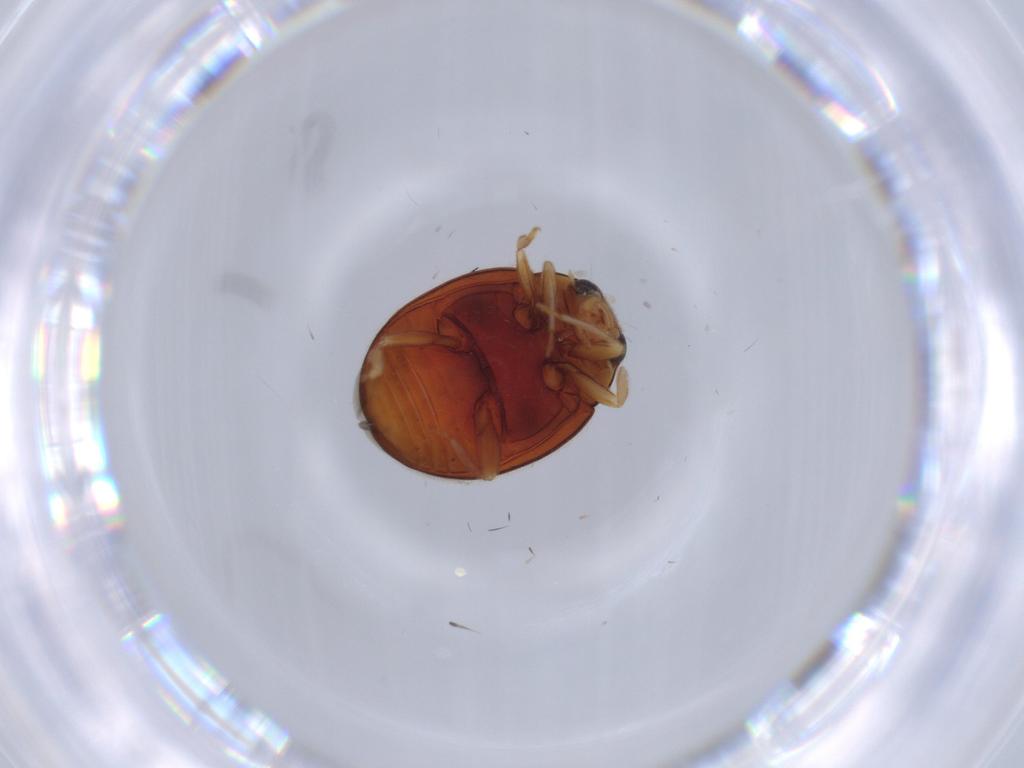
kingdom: Animalia
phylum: Arthropoda
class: Insecta
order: Coleoptera
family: Coccinellidae
